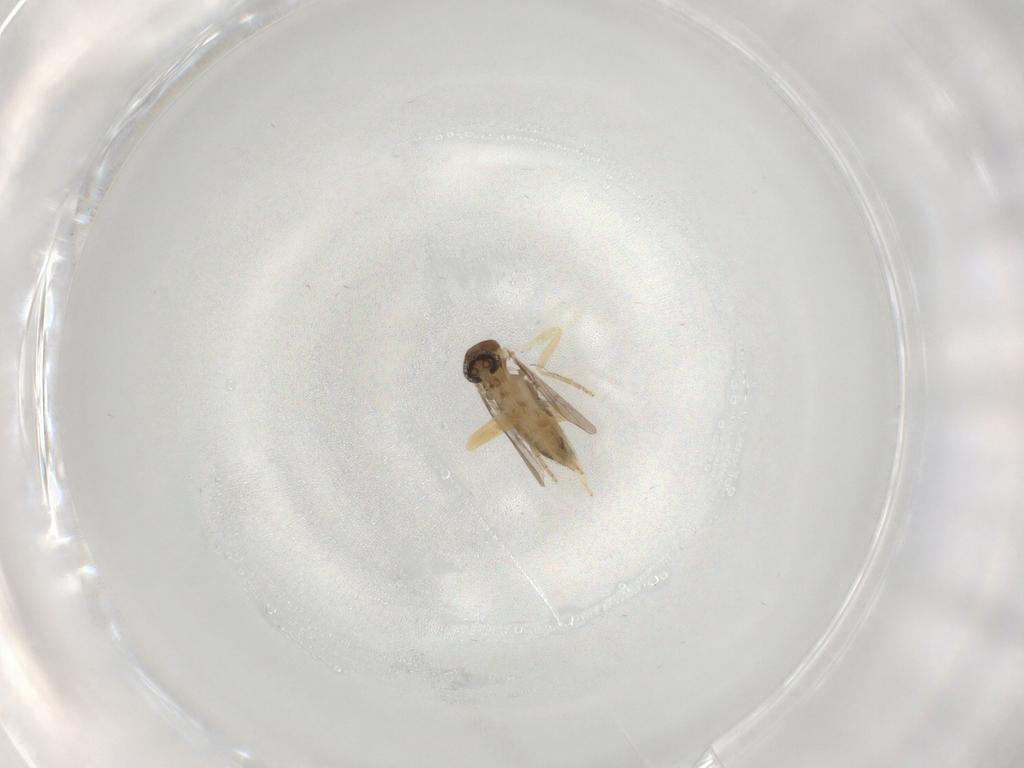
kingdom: Animalia
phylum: Arthropoda
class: Insecta
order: Diptera
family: Ceratopogonidae
